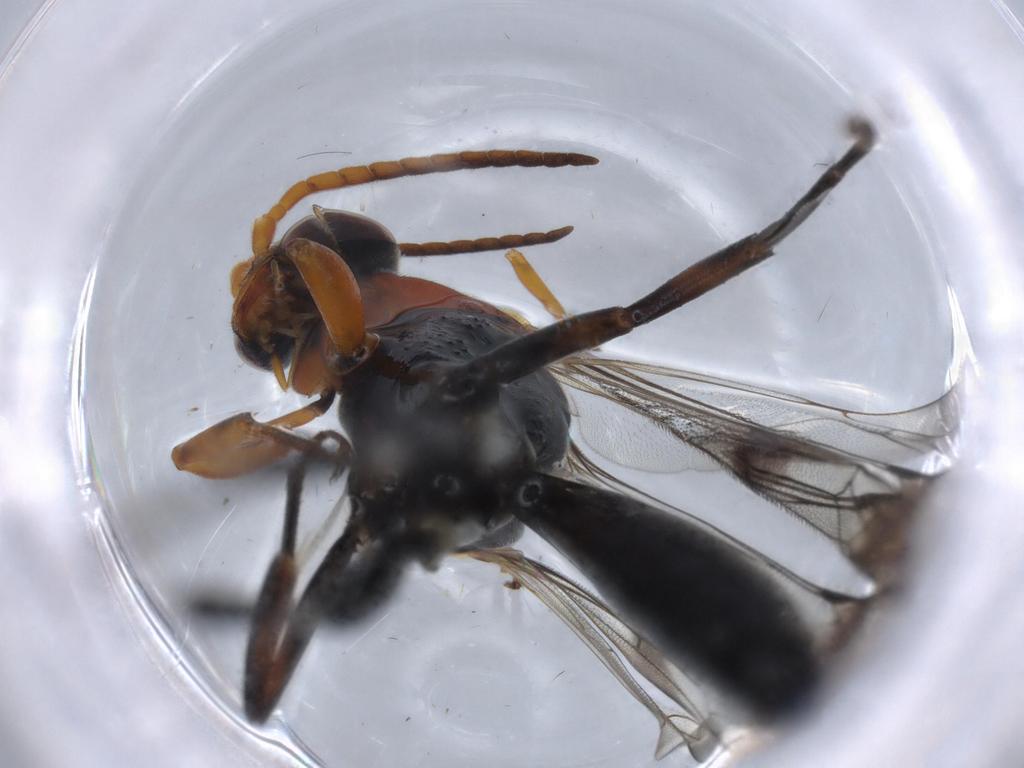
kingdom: Animalia
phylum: Arthropoda
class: Insecta
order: Hymenoptera
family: Pompilidae
